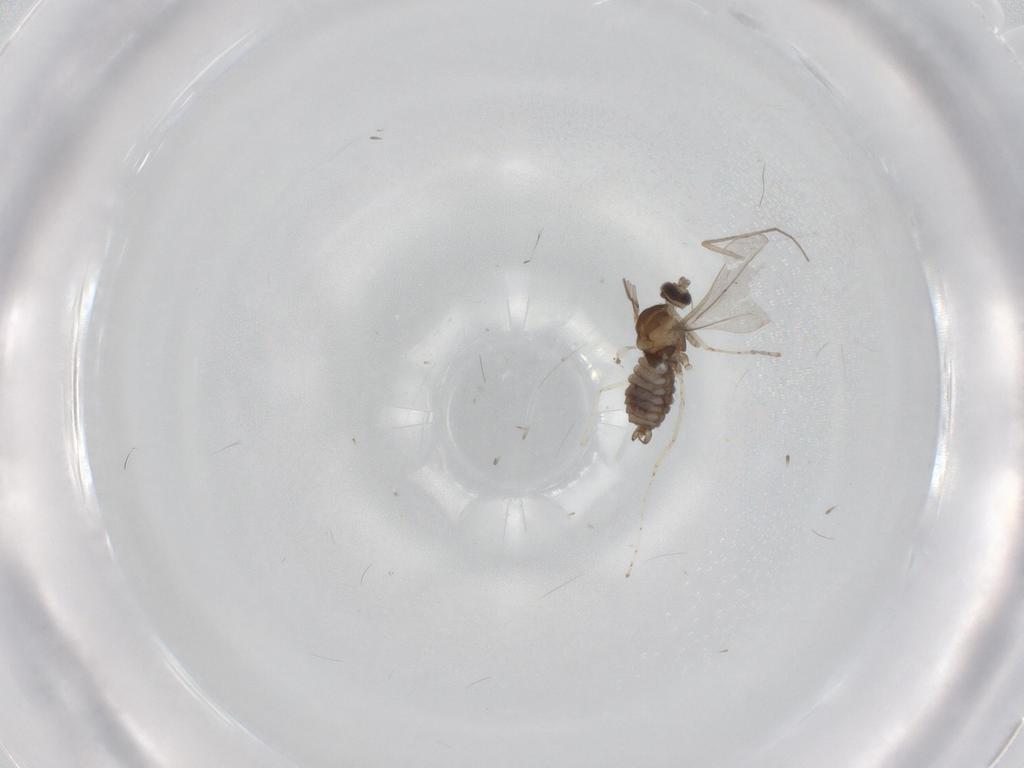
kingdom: Animalia
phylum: Arthropoda
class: Insecta
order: Diptera
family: Chironomidae
